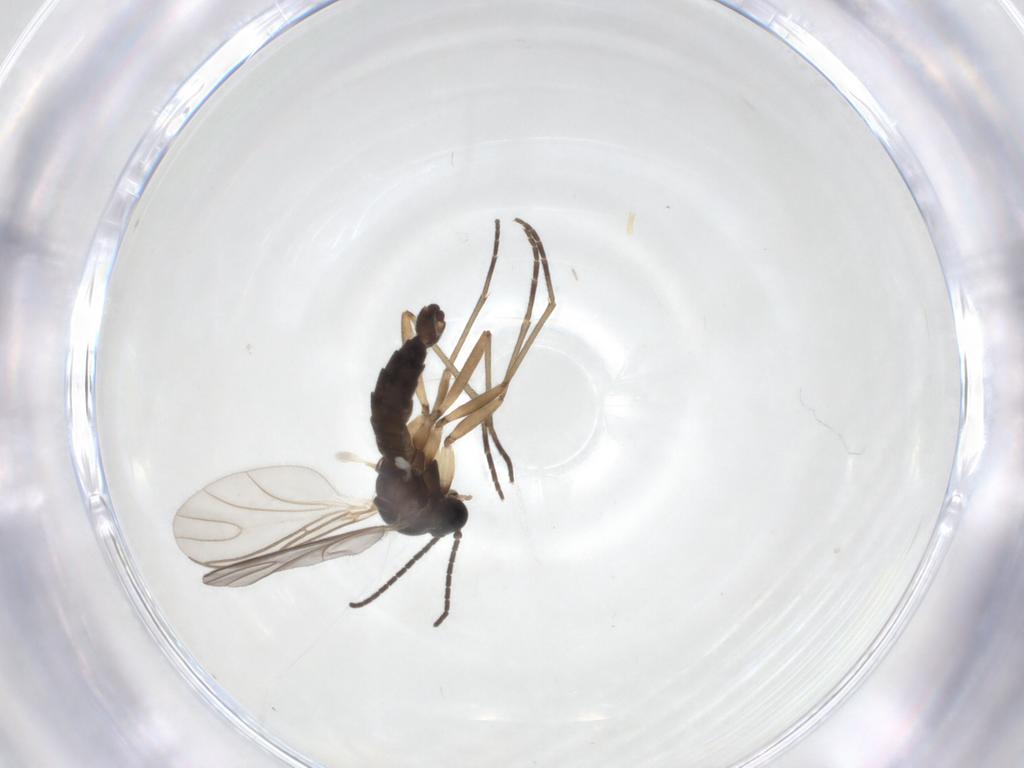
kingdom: Animalia
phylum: Arthropoda
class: Insecta
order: Diptera
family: Sciaridae
